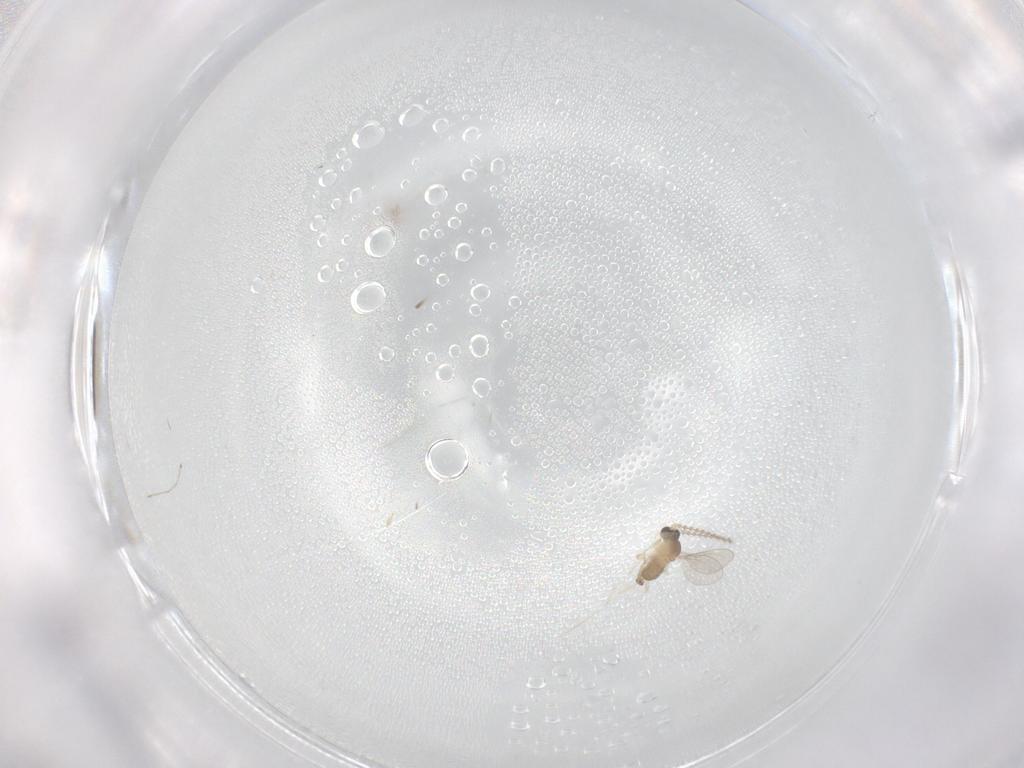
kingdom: Animalia
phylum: Arthropoda
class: Insecta
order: Diptera
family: Cecidomyiidae
